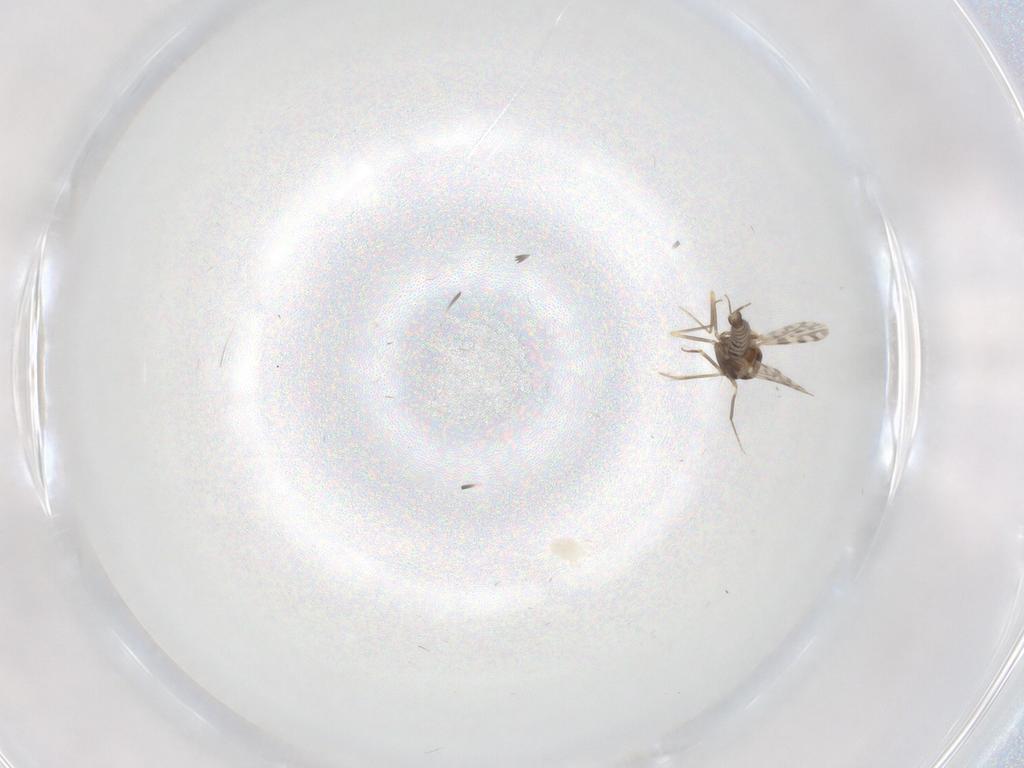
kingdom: Animalia
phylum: Arthropoda
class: Insecta
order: Diptera
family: Ceratopogonidae
